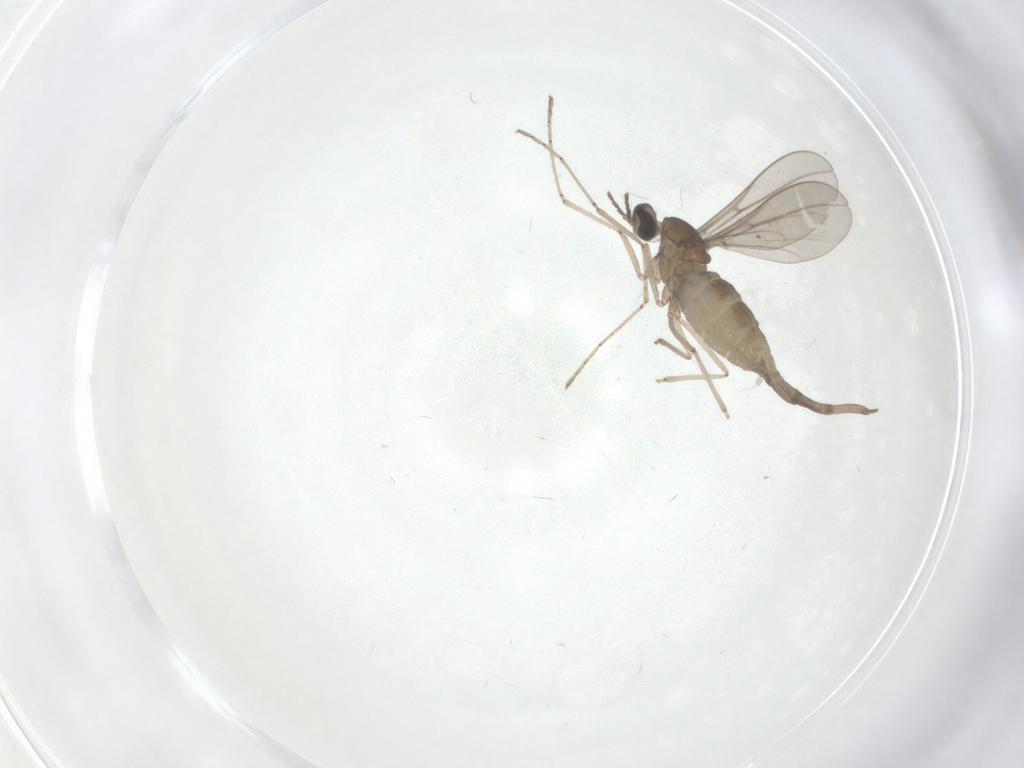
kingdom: Animalia
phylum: Arthropoda
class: Insecta
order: Diptera
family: Cecidomyiidae
